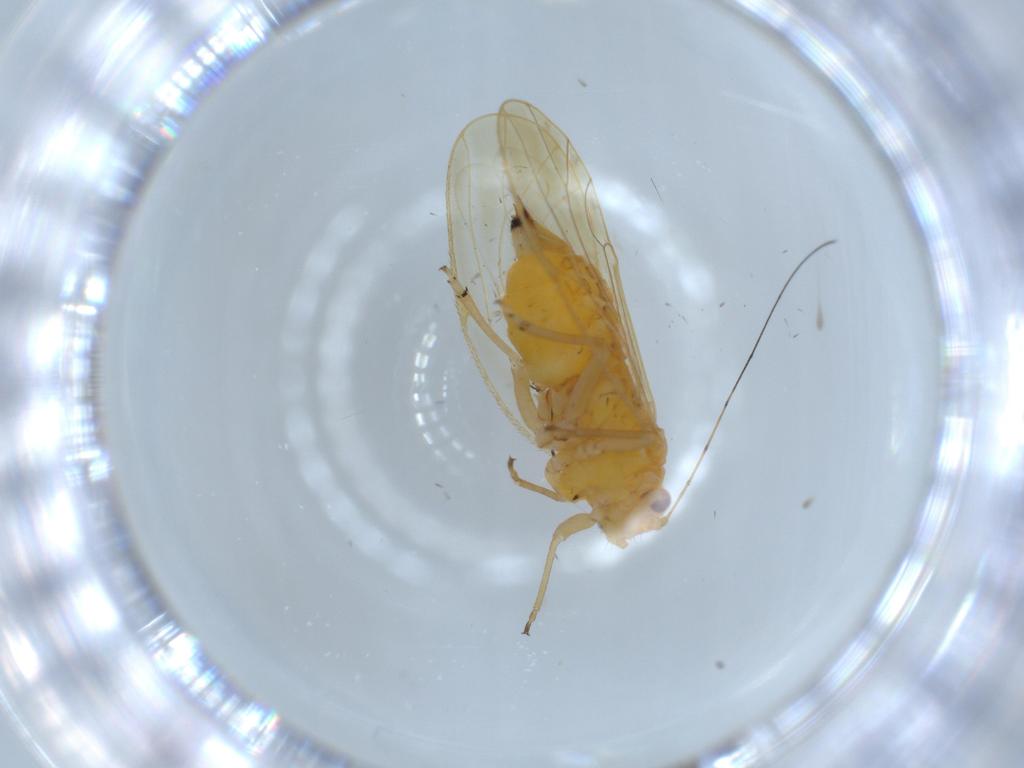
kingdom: Animalia
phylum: Arthropoda
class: Insecta
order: Hemiptera
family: Psyllidae
